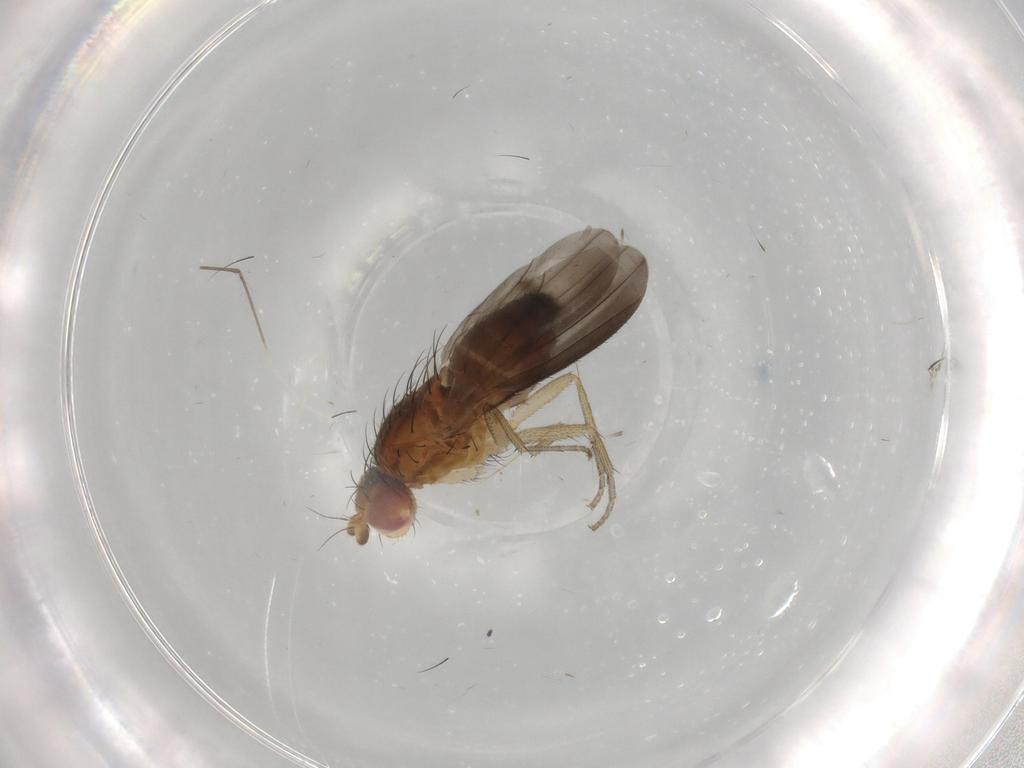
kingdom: Animalia
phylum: Arthropoda
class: Insecta
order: Diptera
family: Heleomyzidae
